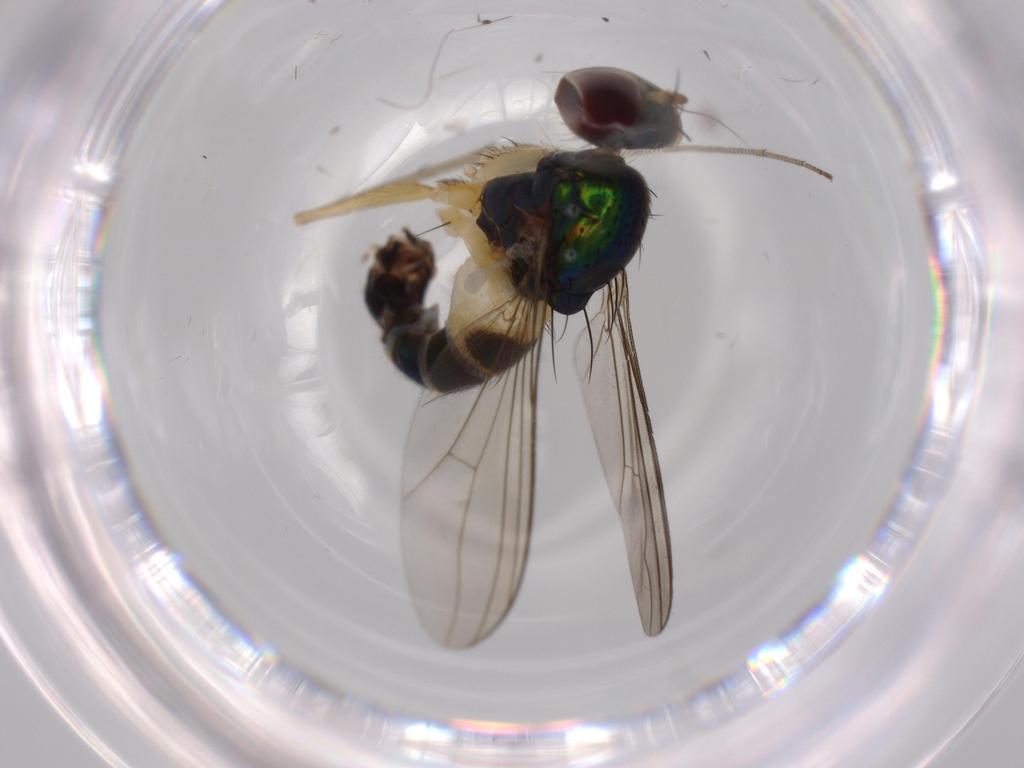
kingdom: Animalia
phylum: Arthropoda
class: Insecta
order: Diptera
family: Dolichopodidae
